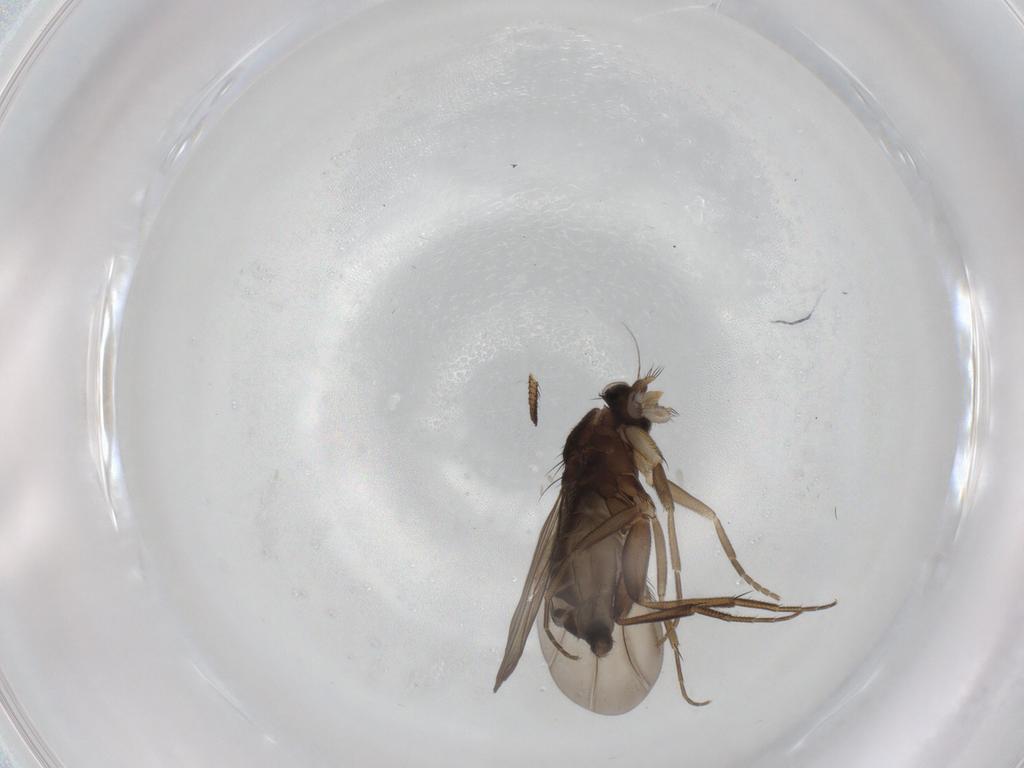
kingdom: Animalia
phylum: Arthropoda
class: Insecta
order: Diptera
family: Phoridae
